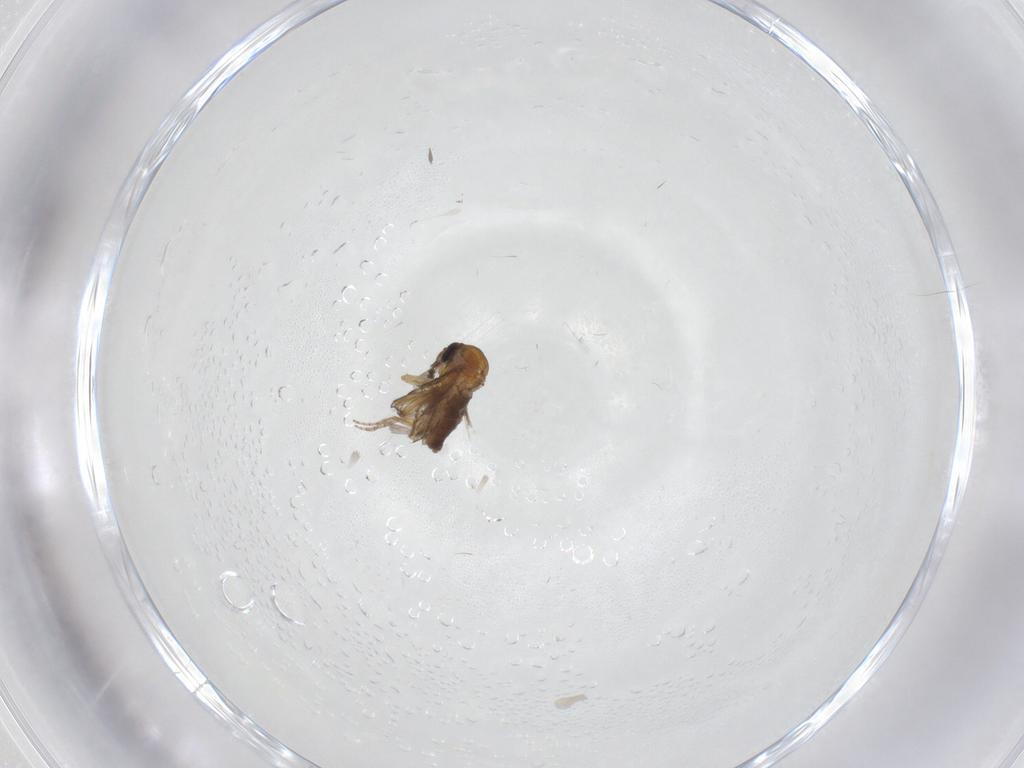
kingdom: Animalia
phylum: Arthropoda
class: Insecta
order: Diptera
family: Ceratopogonidae
